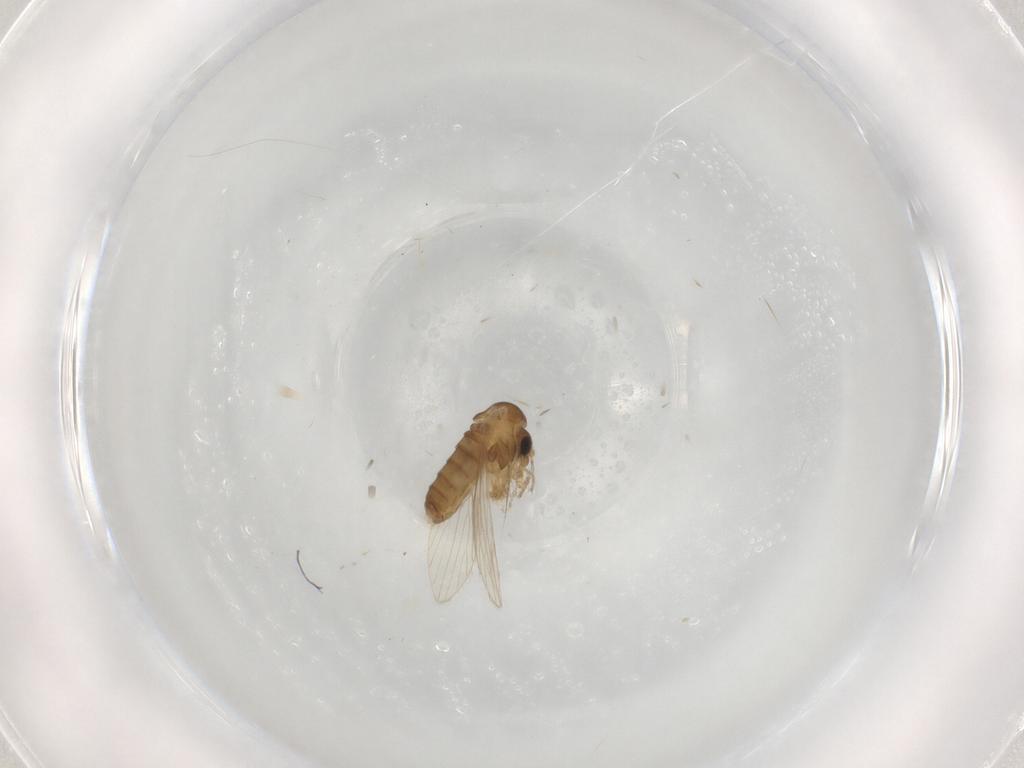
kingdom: Animalia
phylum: Arthropoda
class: Insecta
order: Diptera
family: Psychodidae
